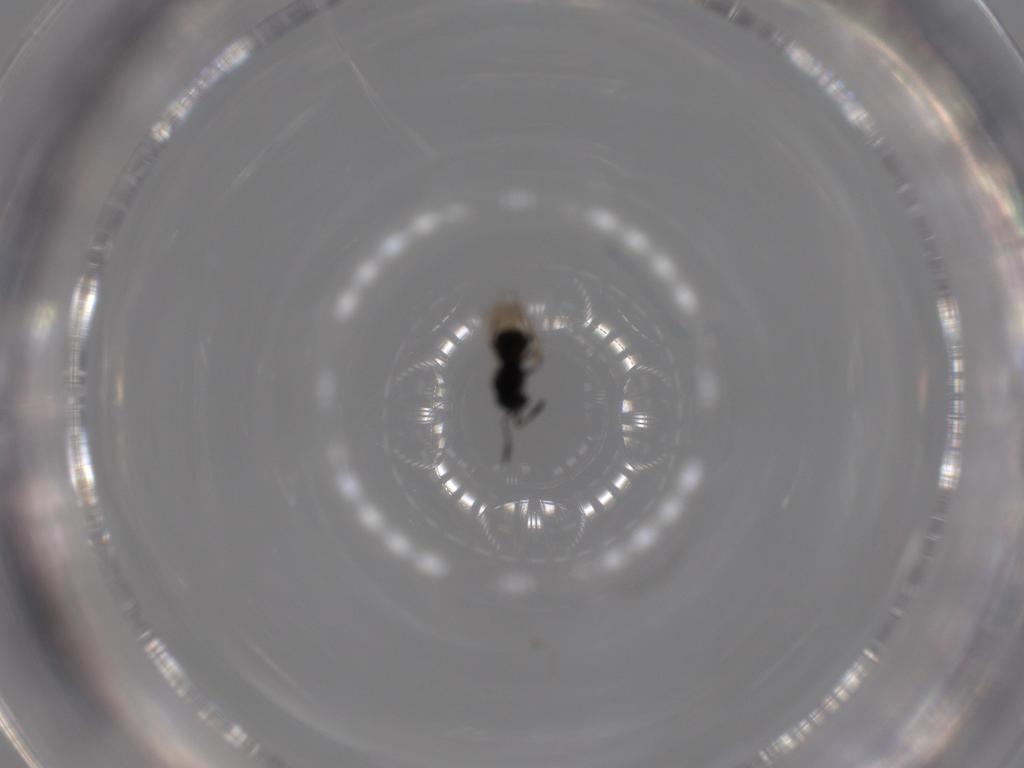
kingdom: Animalia
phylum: Arthropoda
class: Insecta
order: Hymenoptera
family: Scelionidae
